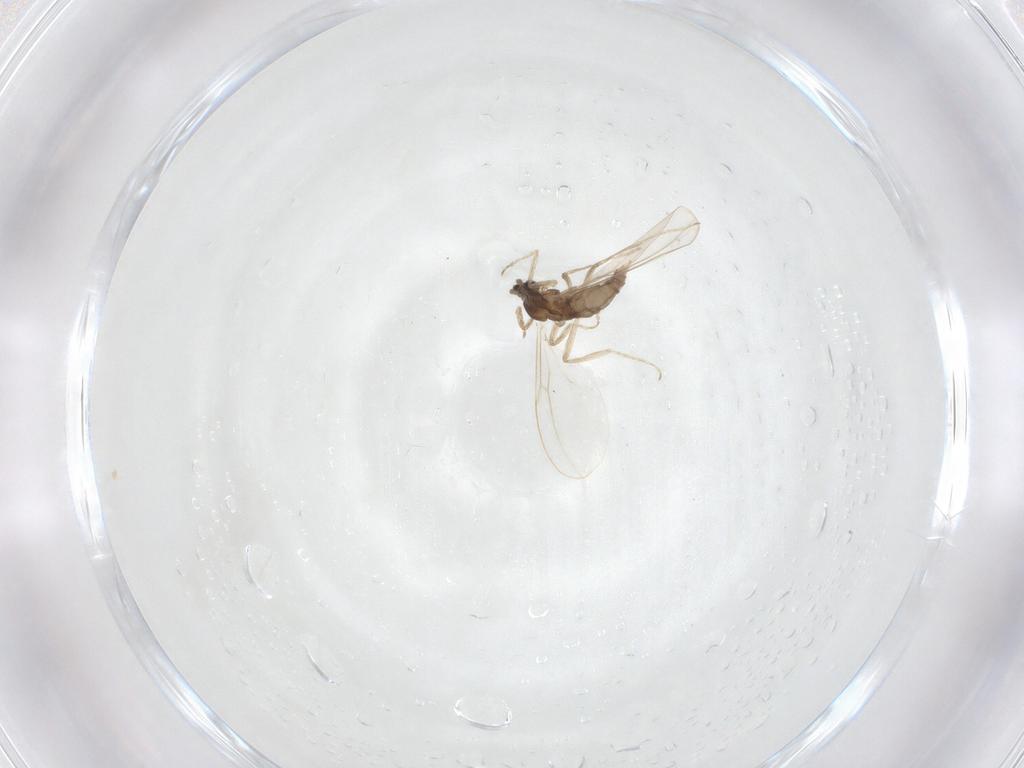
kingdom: Animalia
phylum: Arthropoda
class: Insecta
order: Diptera
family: Cecidomyiidae
